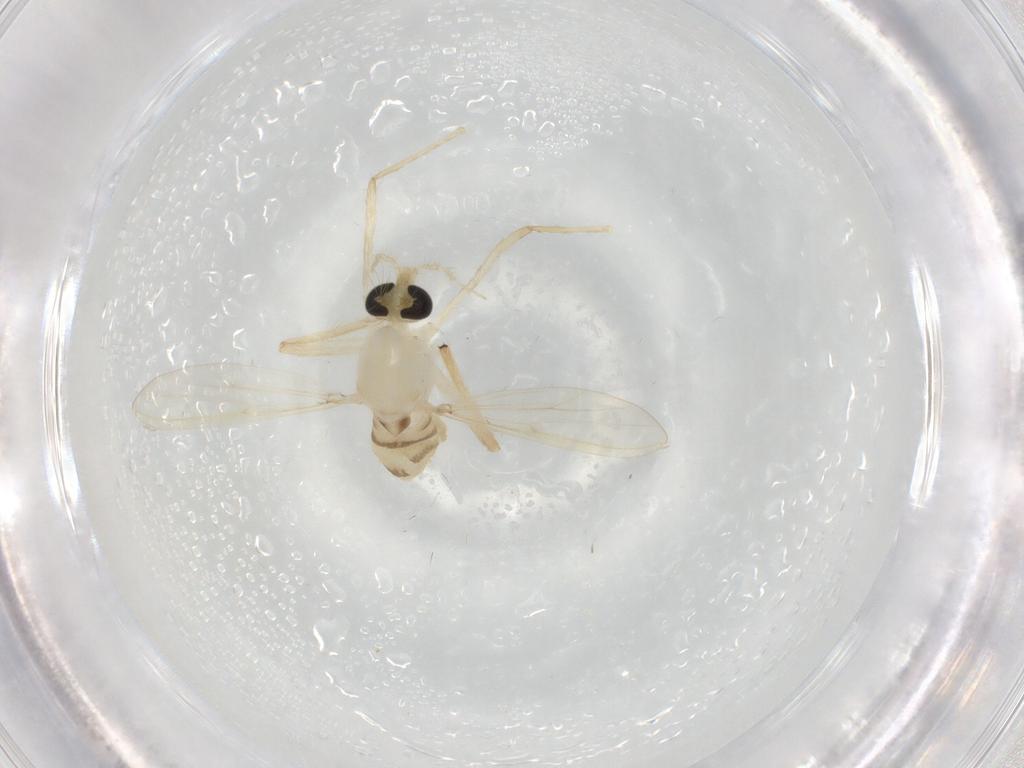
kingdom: Animalia
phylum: Arthropoda
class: Insecta
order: Diptera
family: Chironomidae
